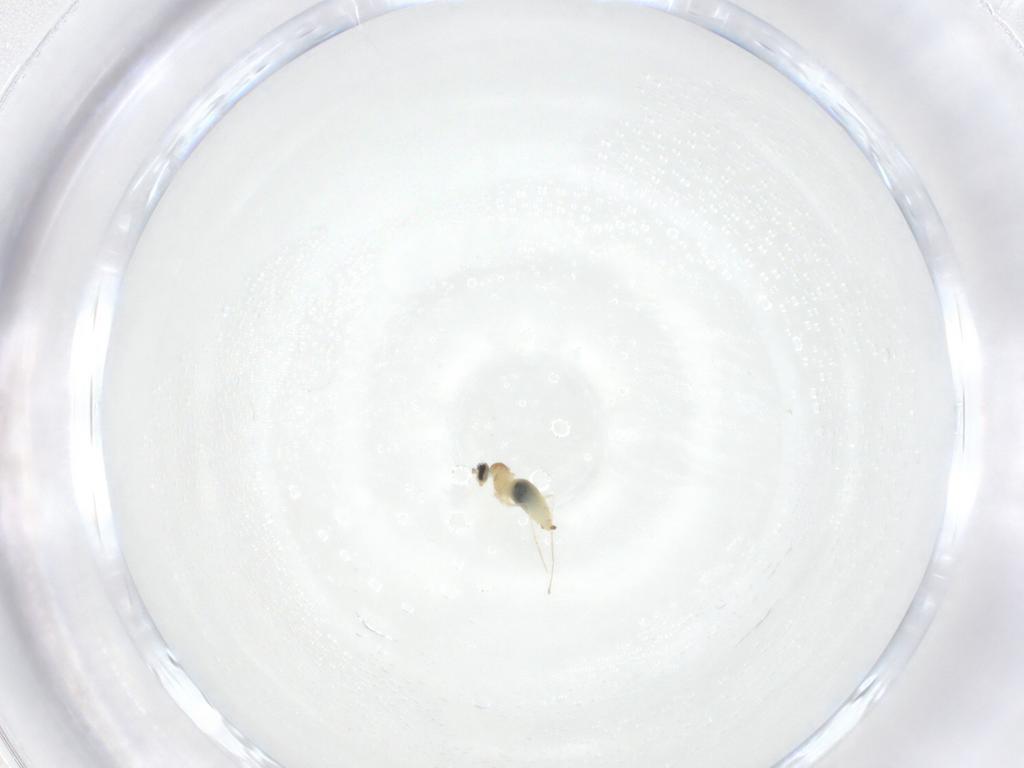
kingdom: Animalia
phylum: Arthropoda
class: Insecta
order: Diptera
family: Cecidomyiidae
